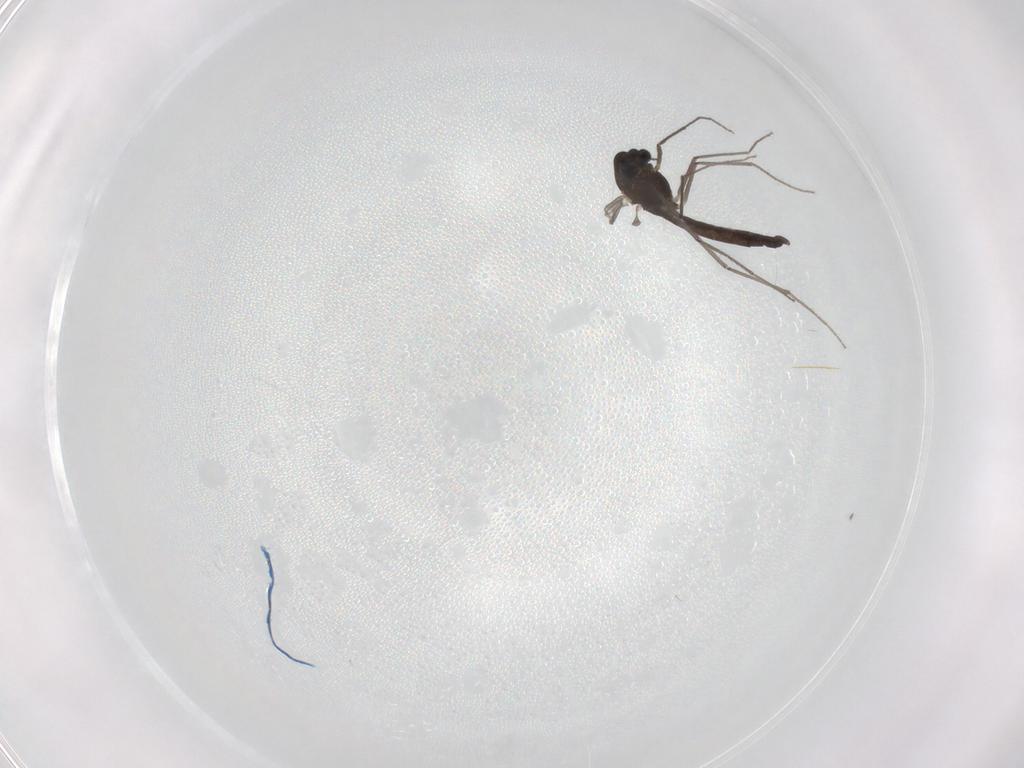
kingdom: Animalia
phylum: Arthropoda
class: Insecta
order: Diptera
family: Chironomidae
